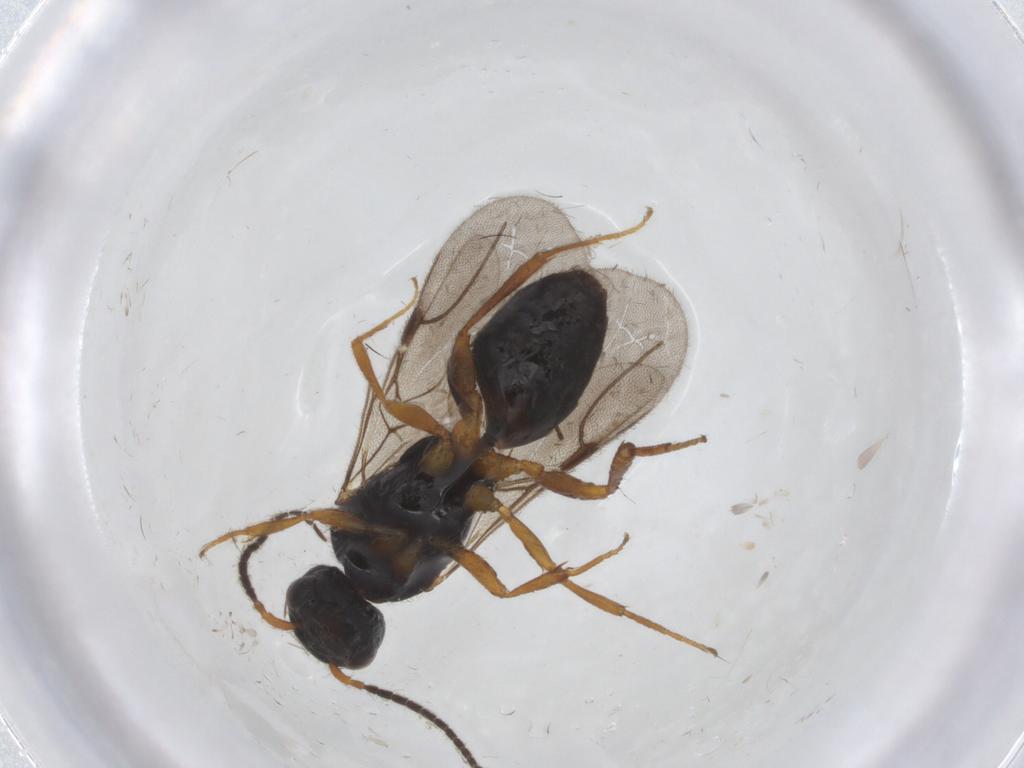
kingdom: Animalia
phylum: Arthropoda
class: Insecta
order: Hymenoptera
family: Bethylidae
